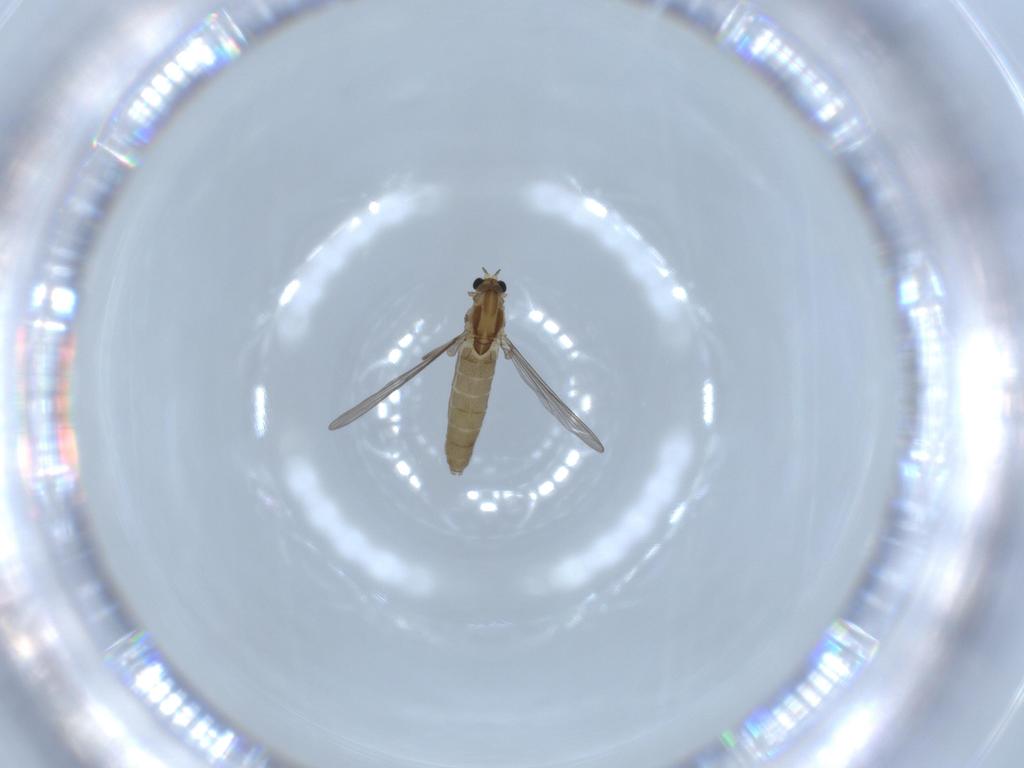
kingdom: Animalia
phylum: Arthropoda
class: Insecta
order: Diptera
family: Chironomidae
